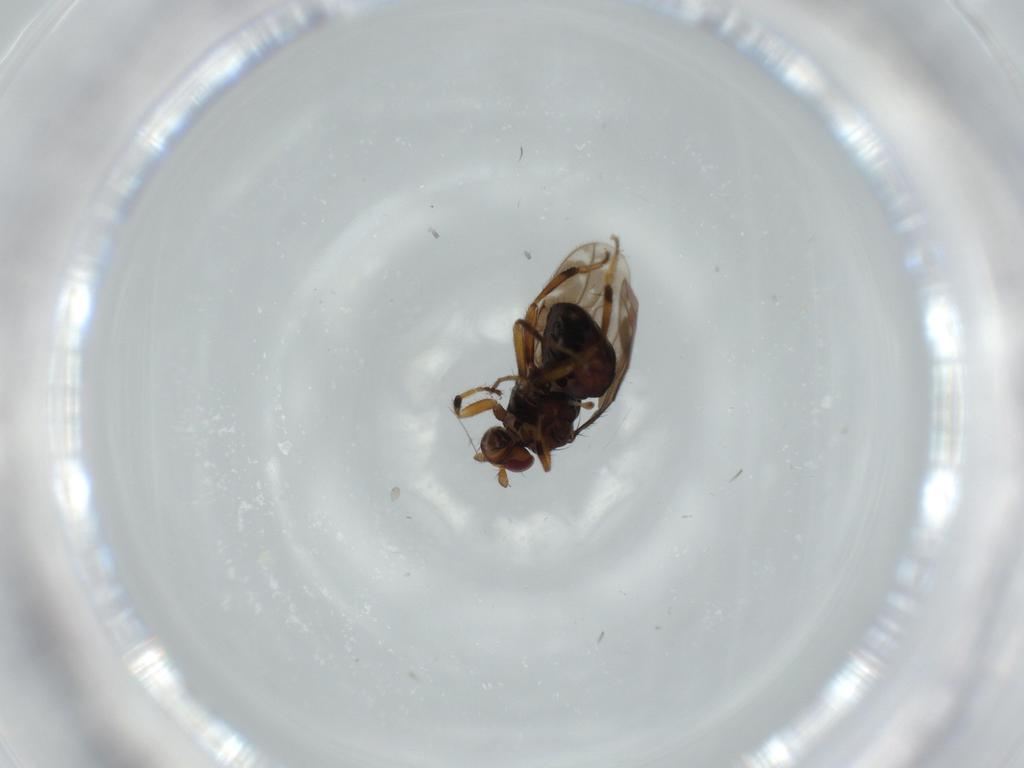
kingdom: Animalia
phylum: Arthropoda
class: Insecta
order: Diptera
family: Sphaeroceridae
